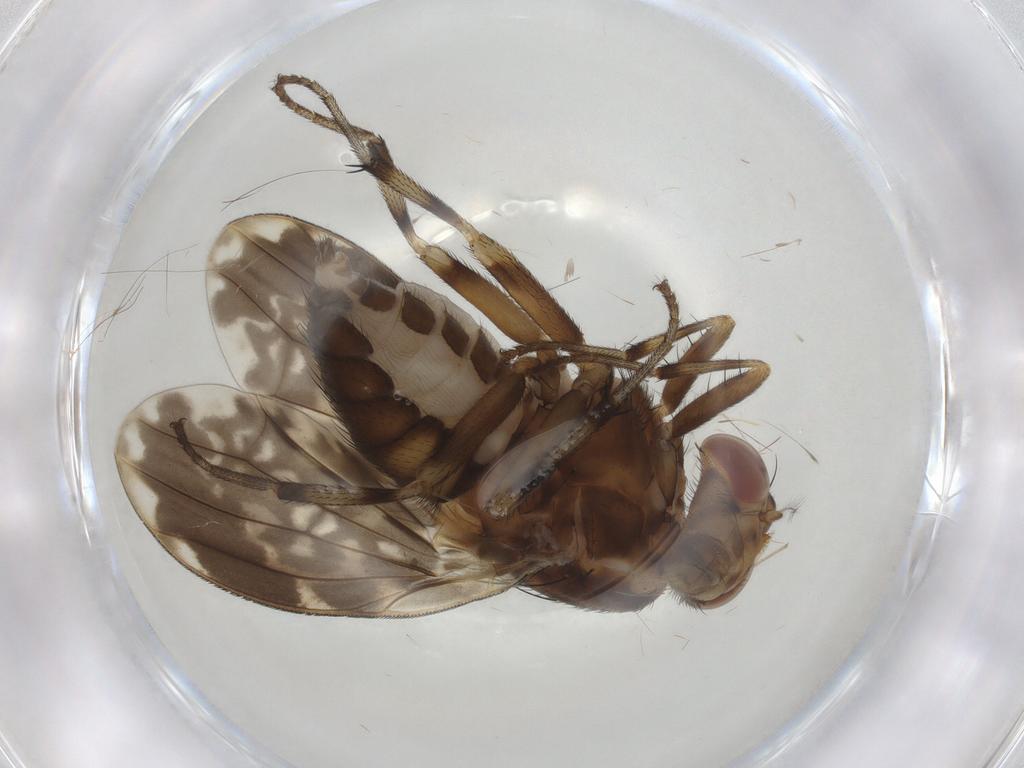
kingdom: Animalia
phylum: Arthropoda
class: Insecta
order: Diptera
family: Lauxaniidae
